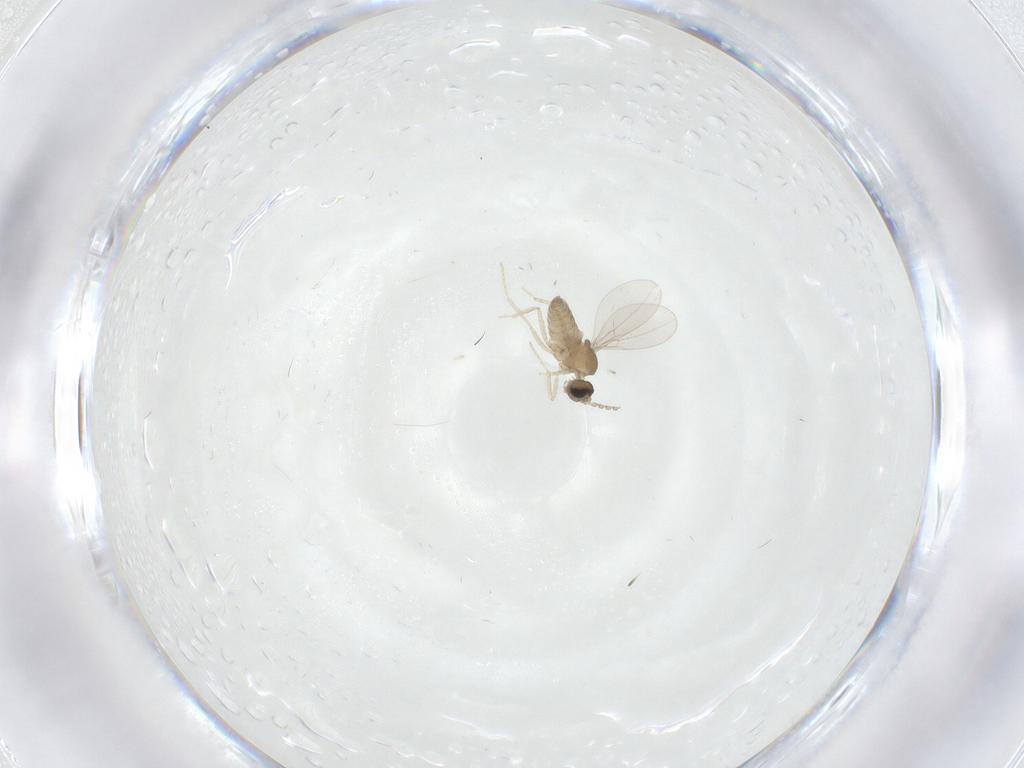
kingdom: Animalia
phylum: Arthropoda
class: Insecta
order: Diptera
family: Cecidomyiidae
